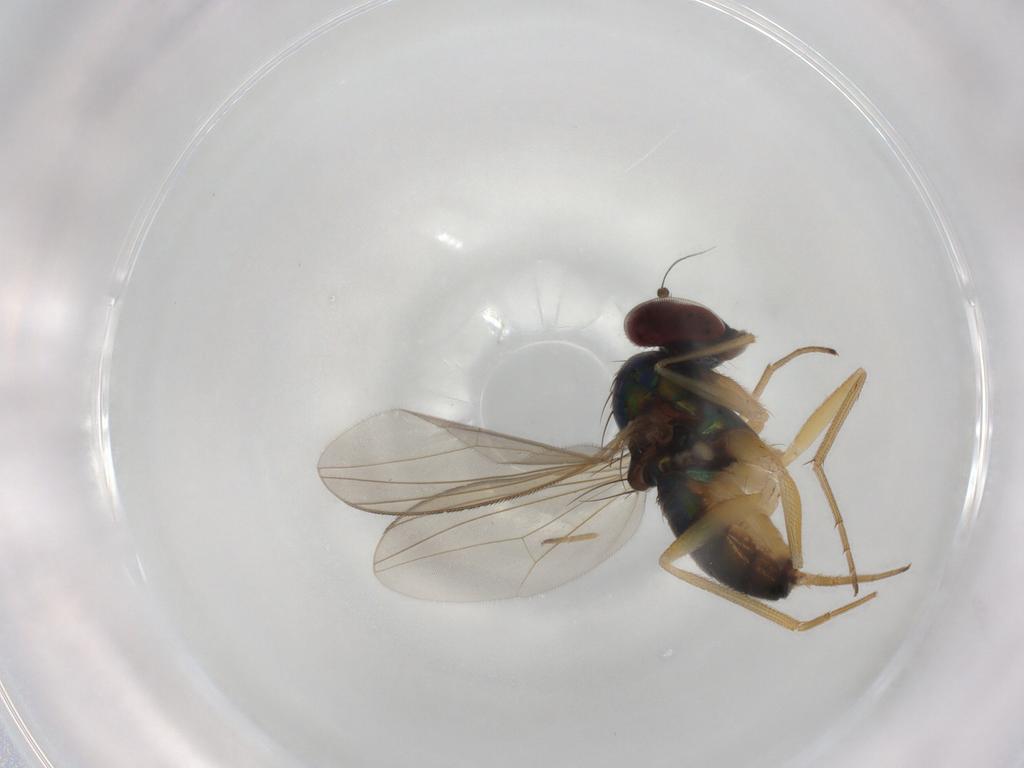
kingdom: Animalia
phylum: Arthropoda
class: Insecta
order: Diptera
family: Dolichopodidae
